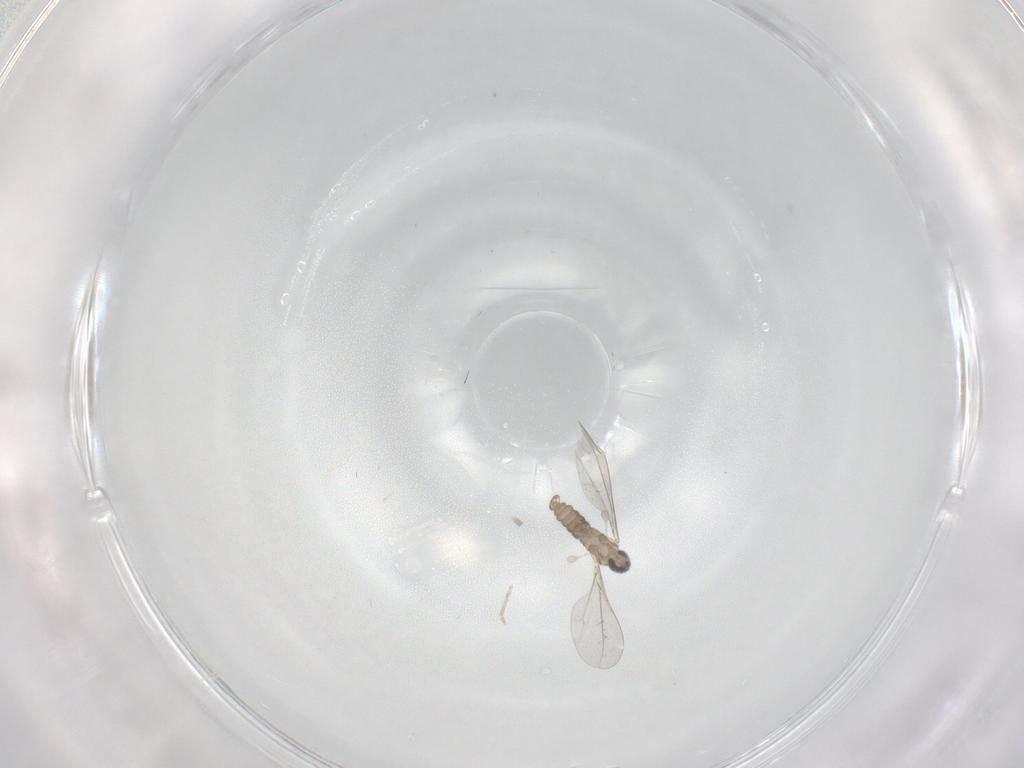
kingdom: Animalia
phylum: Arthropoda
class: Insecta
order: Diptera
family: Cecidomyiidae
